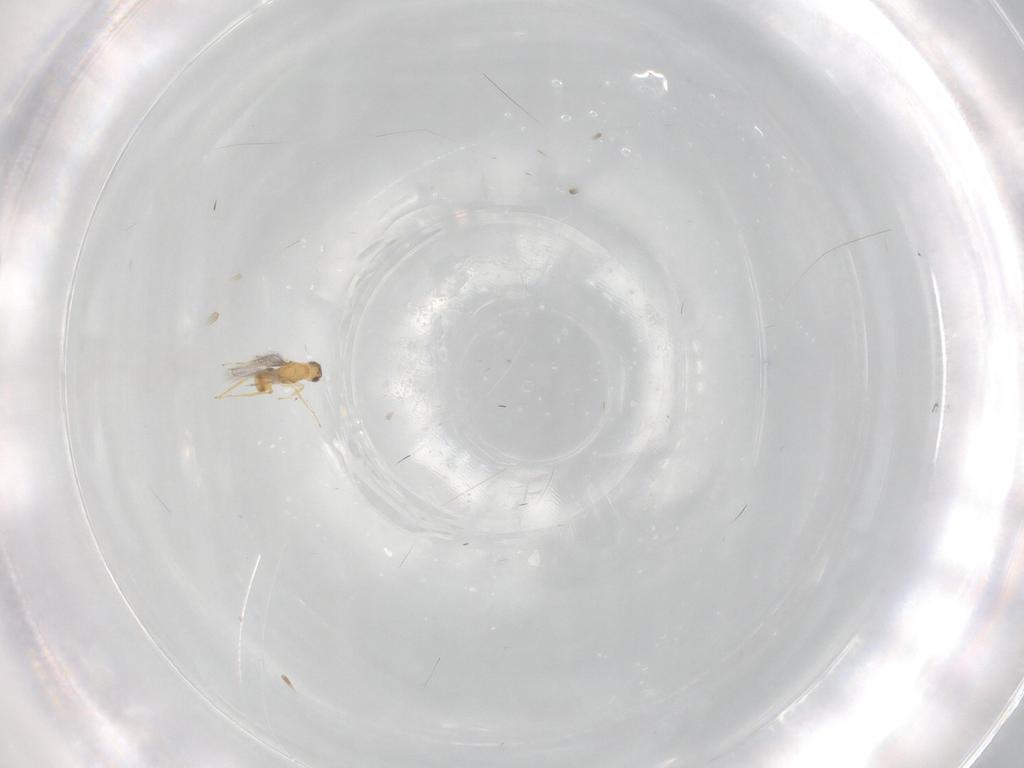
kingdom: Animalia
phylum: Arthropoda
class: Insecta
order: Hymenoptera
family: Mymaridae
